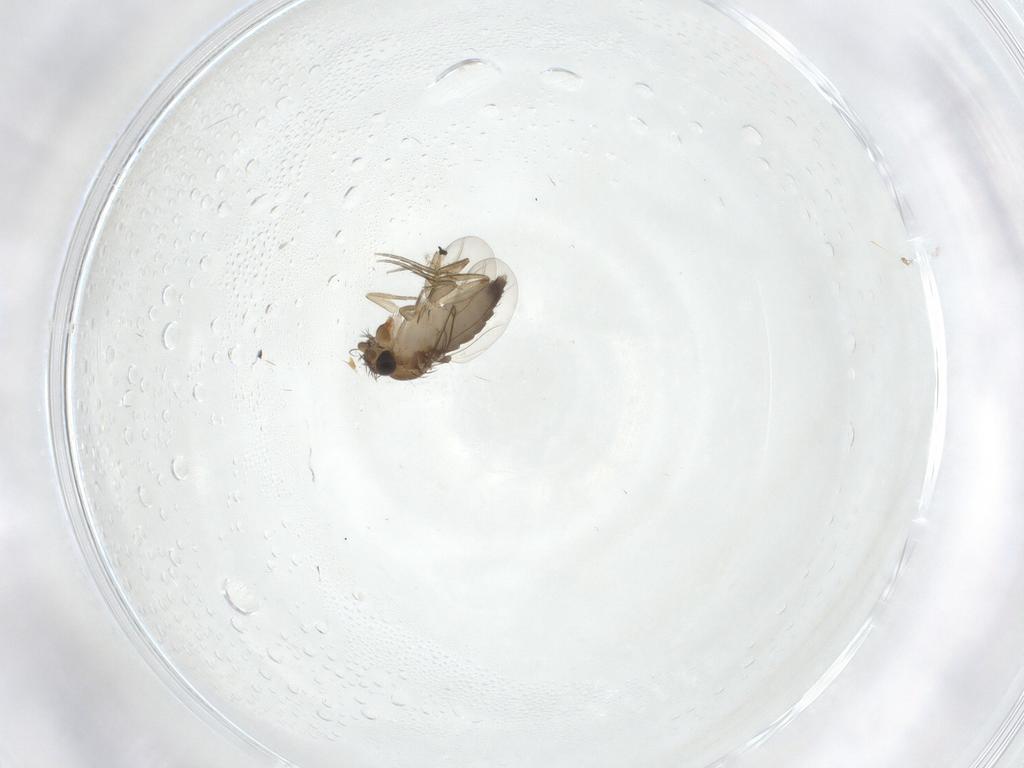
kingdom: Animalia
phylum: Arthropoda
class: Insecta
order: Diptera
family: Phoridae
